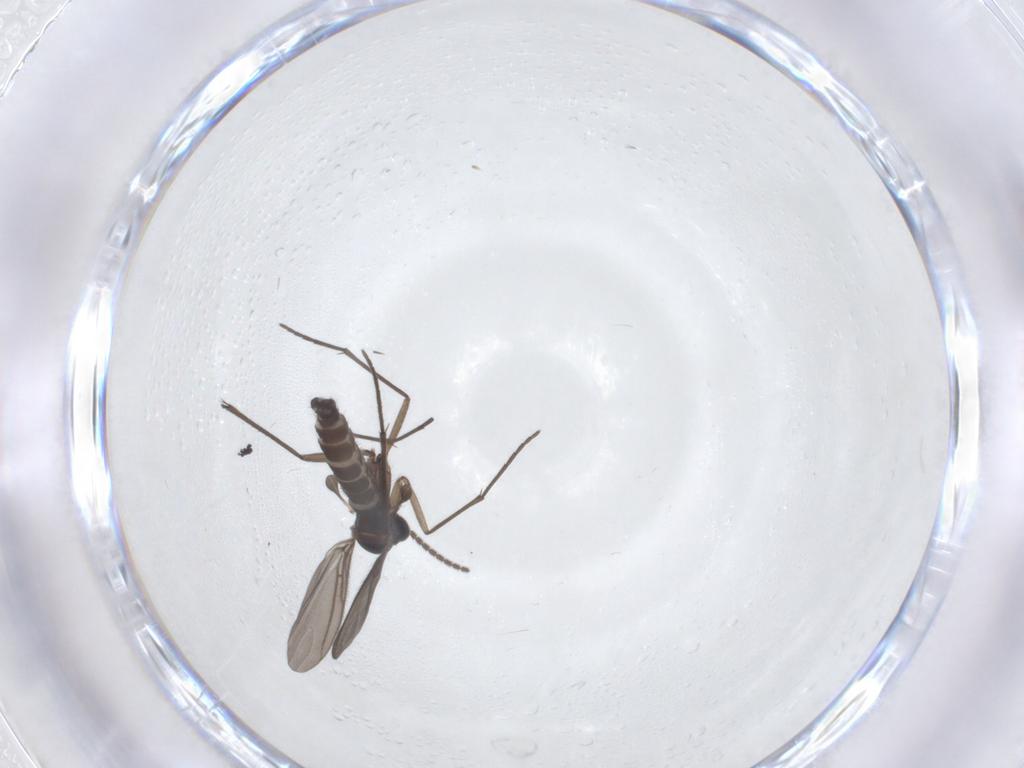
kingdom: Animalia
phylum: Arthropoda
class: Insecta
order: Diptera
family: Sciaridae
